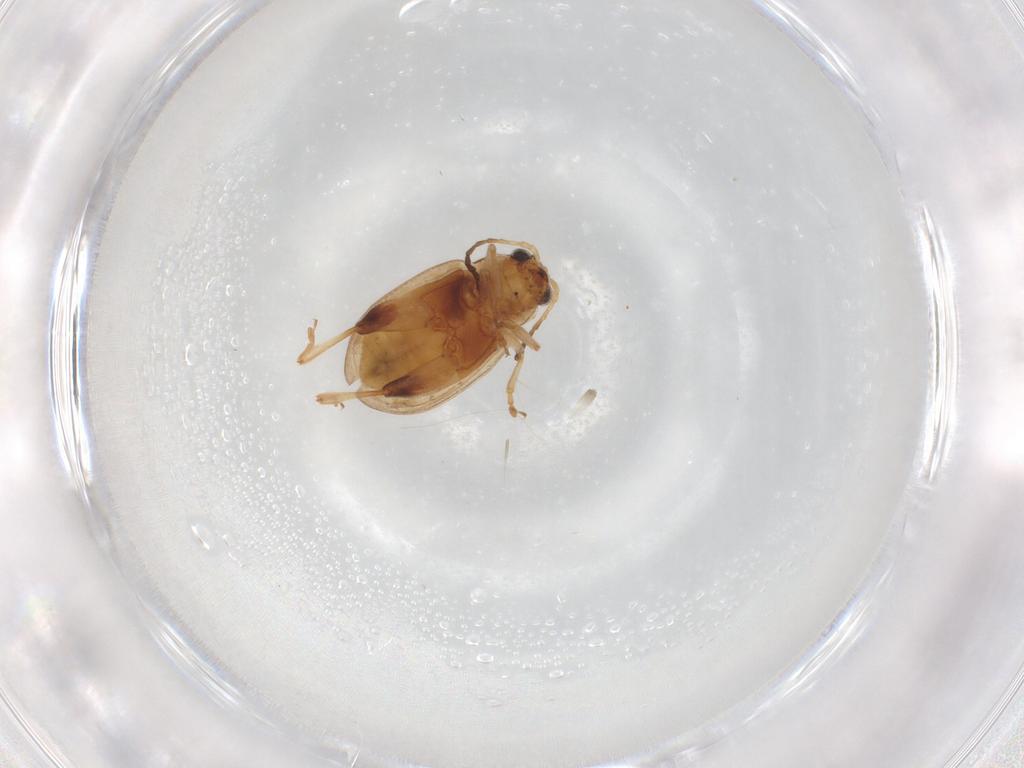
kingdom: Animalia
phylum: Arthropoda
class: Insecta
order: Coleoptera
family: Chrysomelidae
